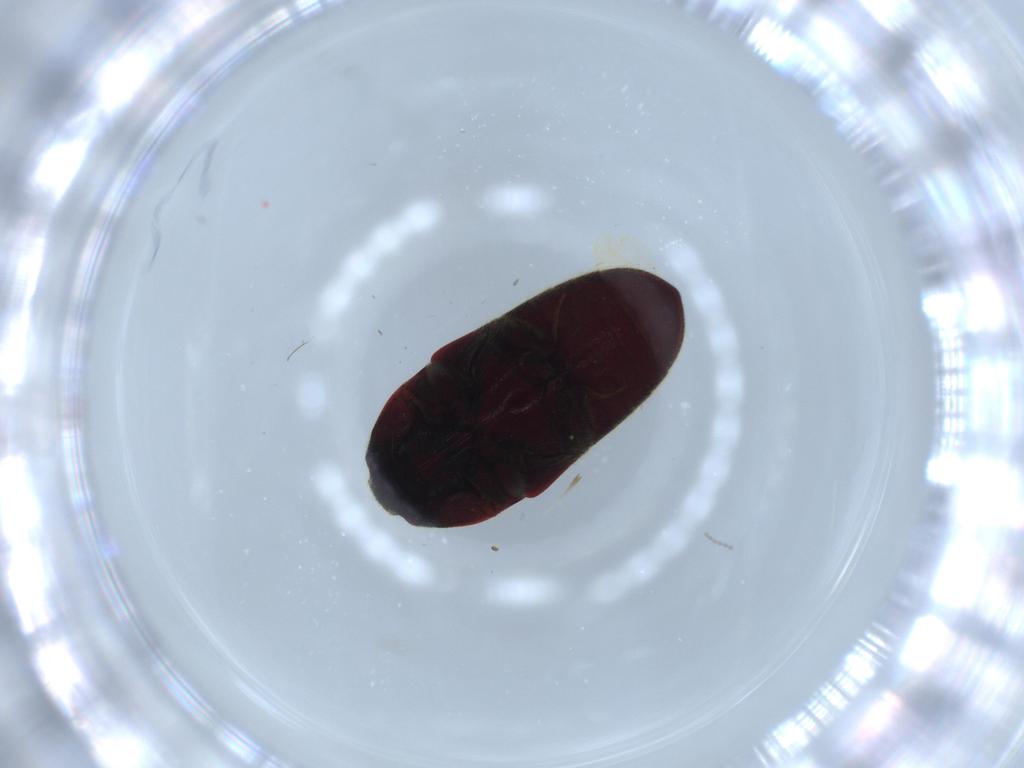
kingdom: Animalia
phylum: Arthropoda
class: Insecta
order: Coleoptera
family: Throscidae
